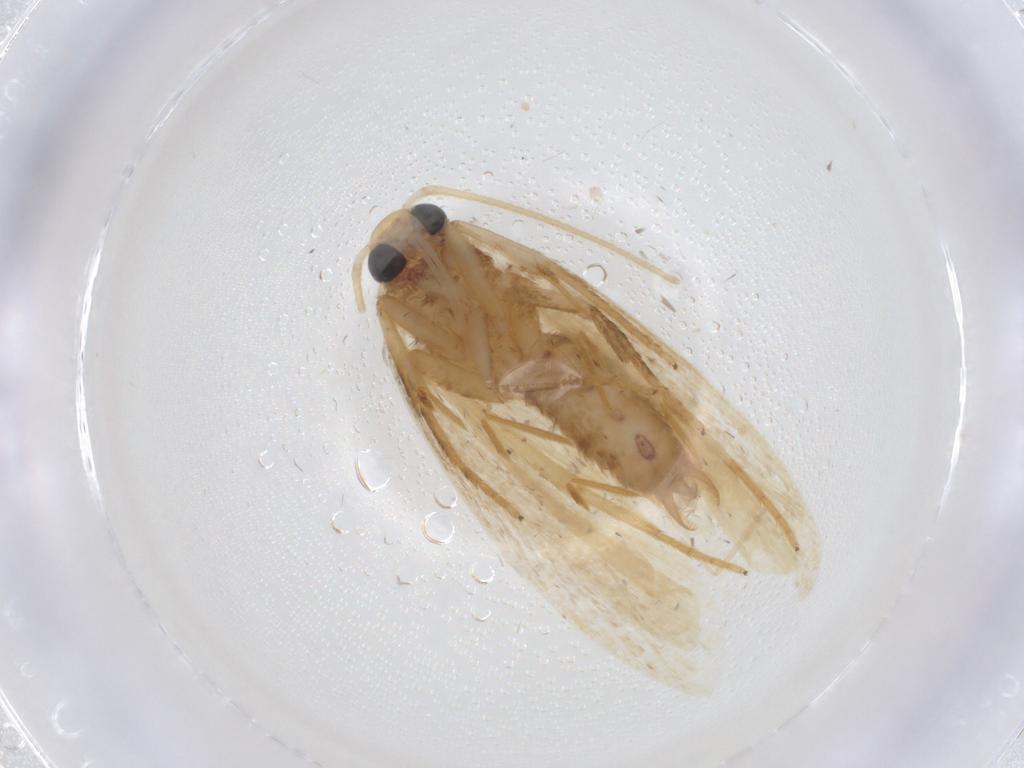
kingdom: Animalia
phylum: Arthropoda
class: Insecta
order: Lepidoptera
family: Depressariidae
